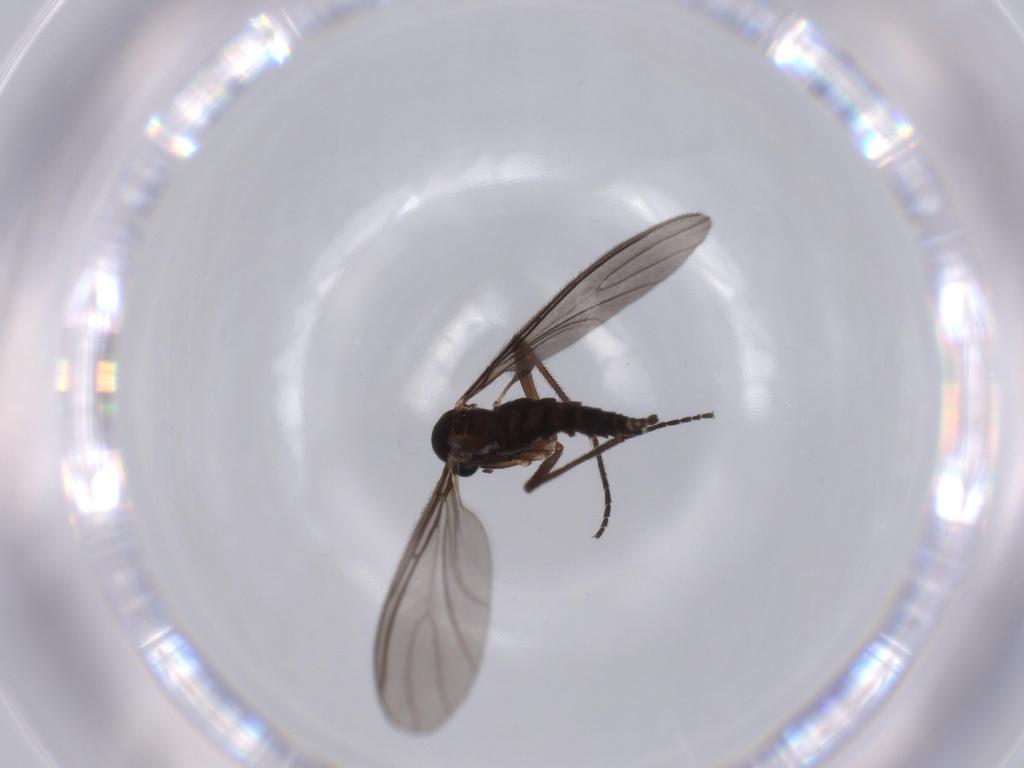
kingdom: Animalia
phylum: Arthropoda
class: Insecta
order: Diptera
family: Sciaridae
